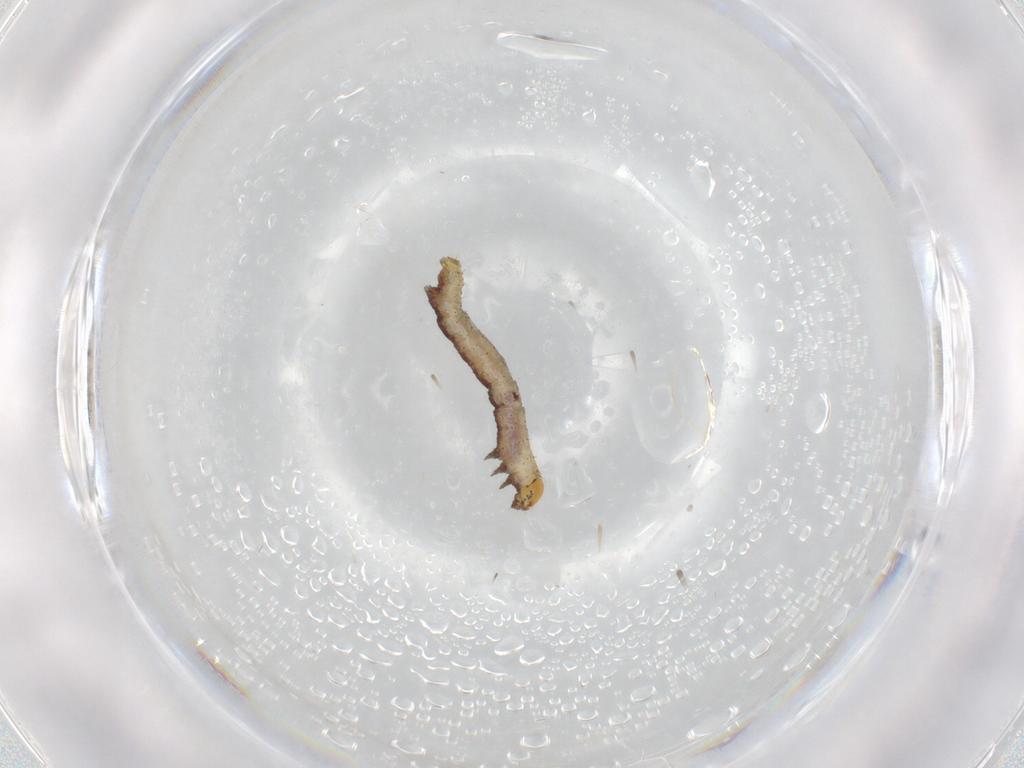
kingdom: Animalia
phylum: Arthropoda
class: Insecta
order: Lepidoptera
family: Geometridae
